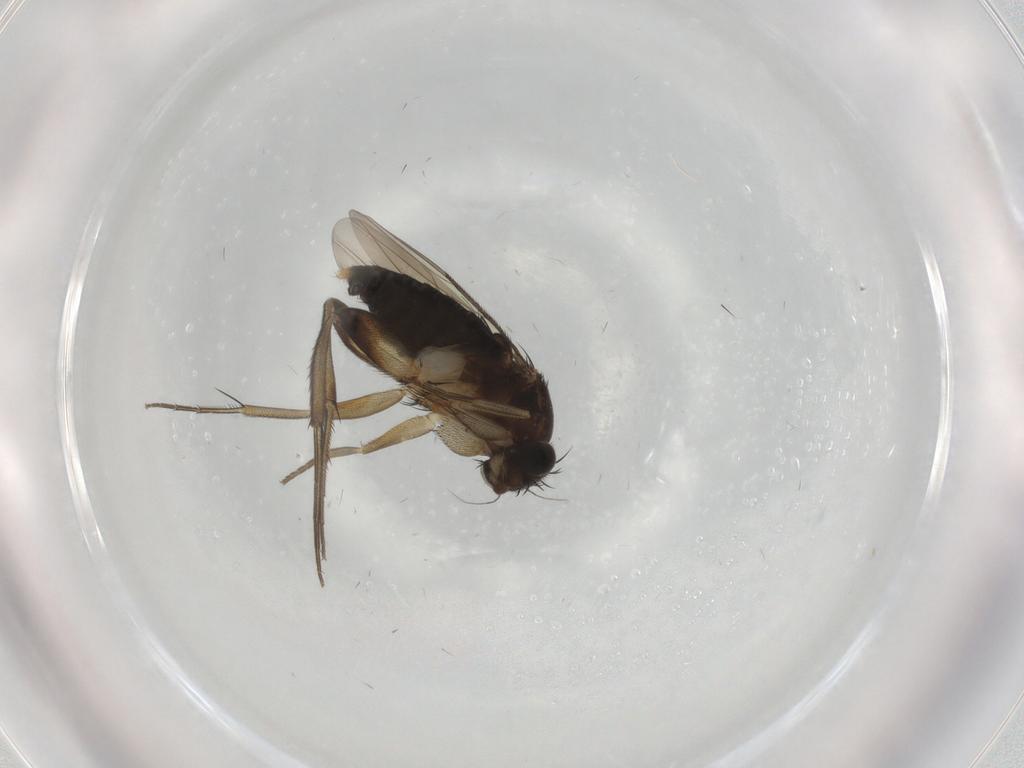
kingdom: Animalia
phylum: Arthropoda
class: Insecta
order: Diptera
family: Phoridae
